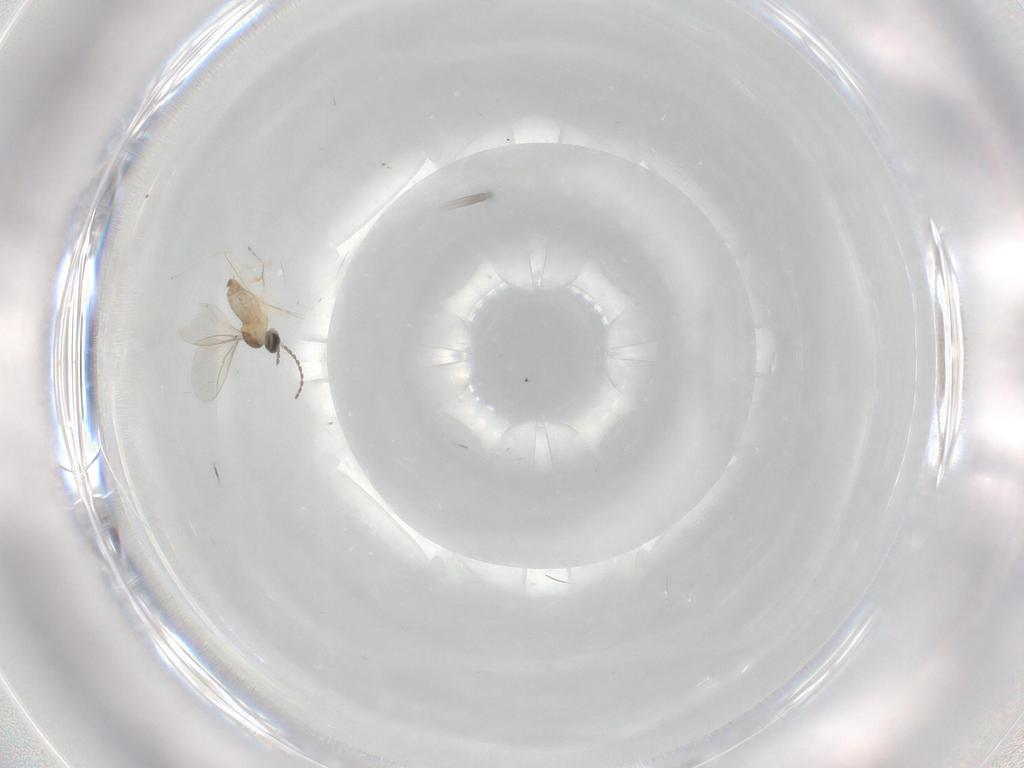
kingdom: Animalia
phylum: Arthropoda
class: Insecta
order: Diptera
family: Cecidomyiidae
